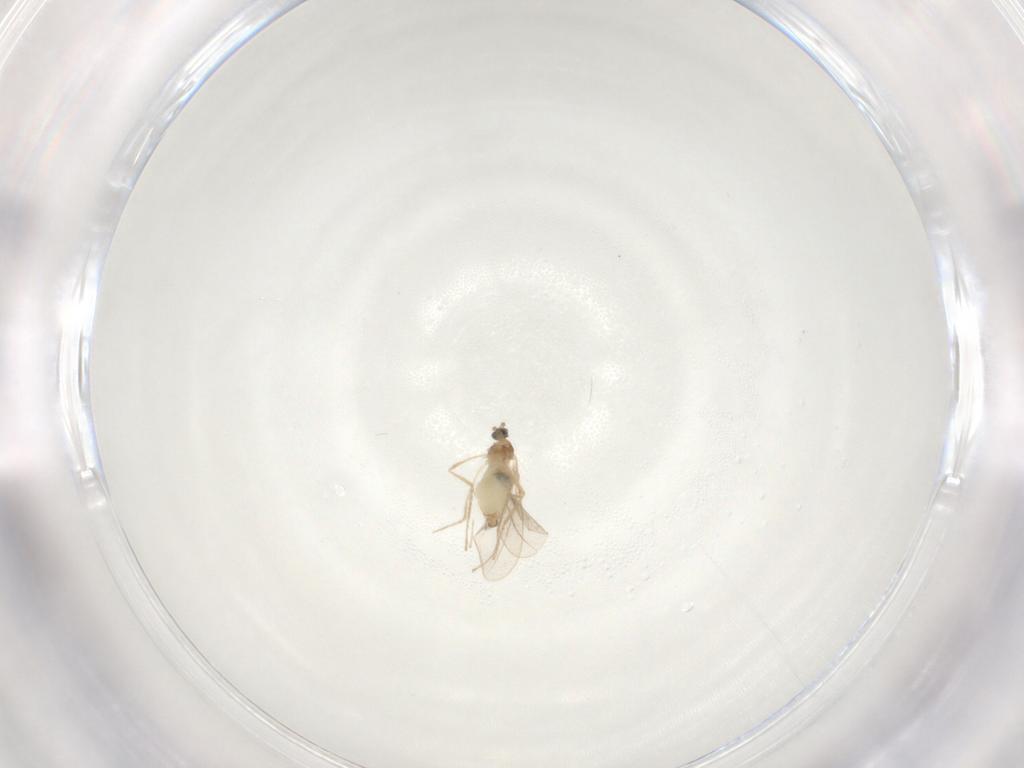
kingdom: Animalia
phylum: Arthropoda
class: Insecta
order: Diptera
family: Cecidomyiidae
